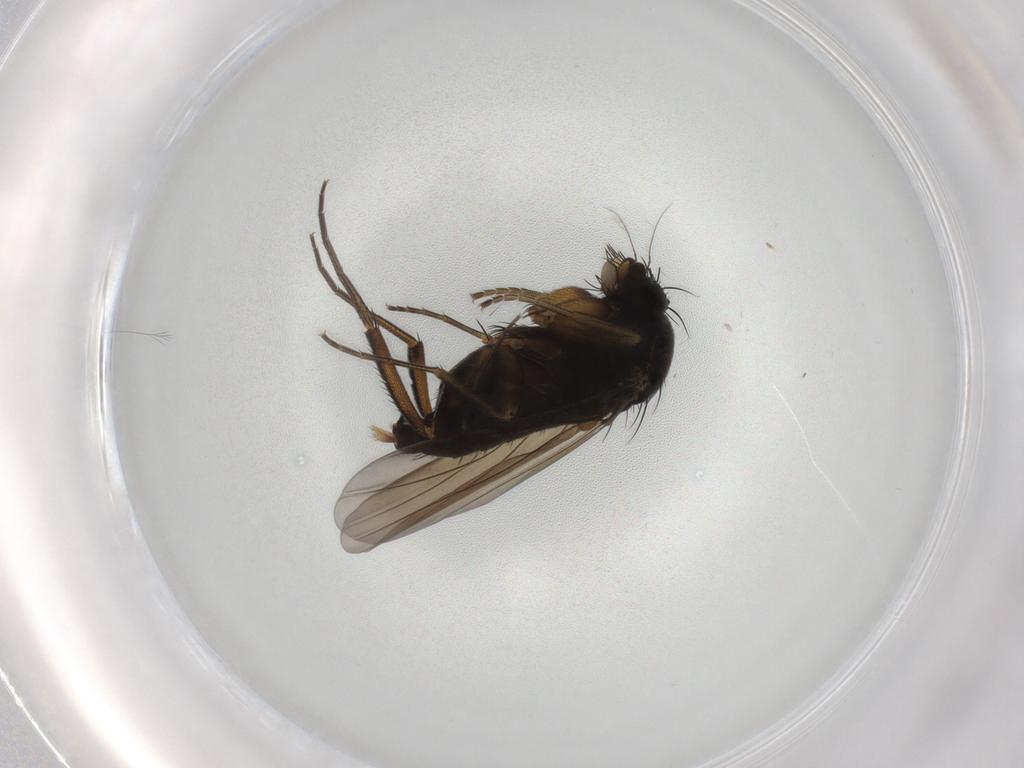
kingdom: Animalia
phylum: Arthropoda
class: Insecta
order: Diptera
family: Phoridae
